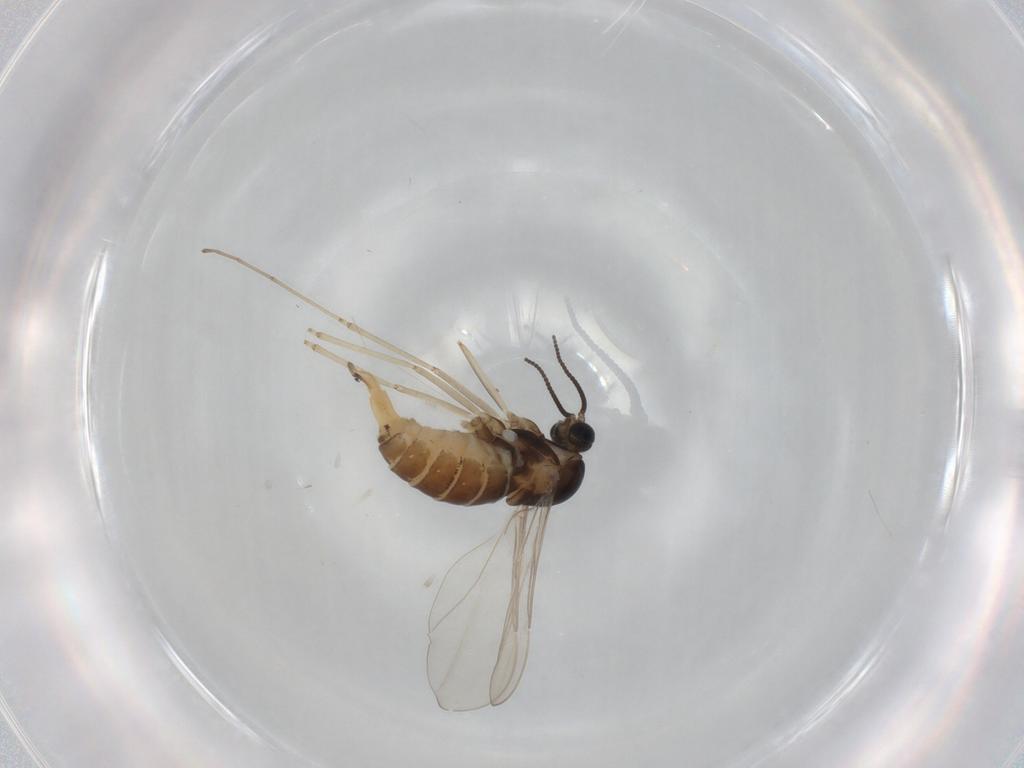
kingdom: Animalia
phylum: Arthropoda
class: Insecta
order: Diptera
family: Cecidomyiidae
